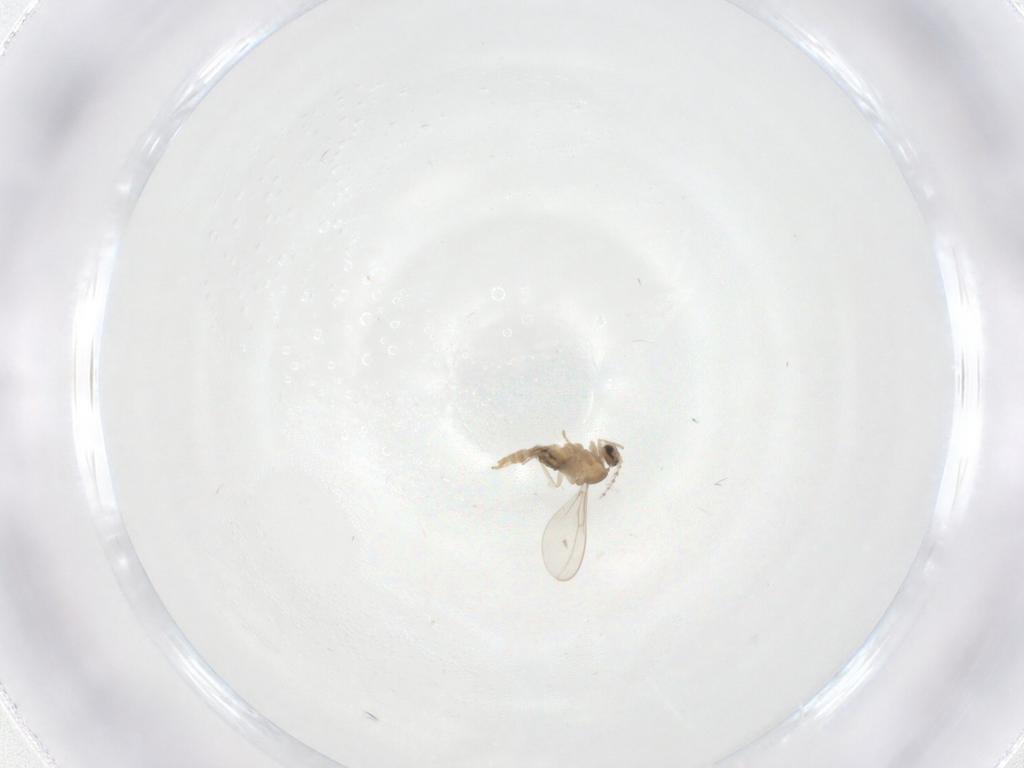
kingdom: Animalia
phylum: Arthropoda
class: Insecta
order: Diptera
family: Cecidomyiidae
